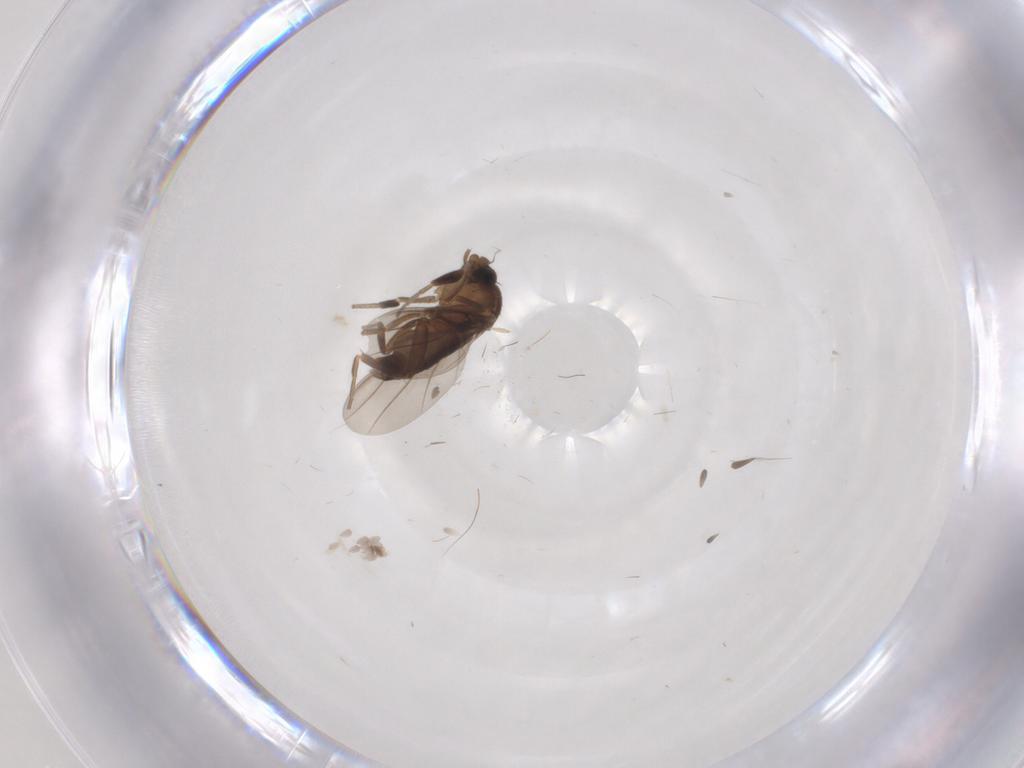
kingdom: Animalia
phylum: Arthropoda
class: Insecta
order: Diptera
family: Phoridae
